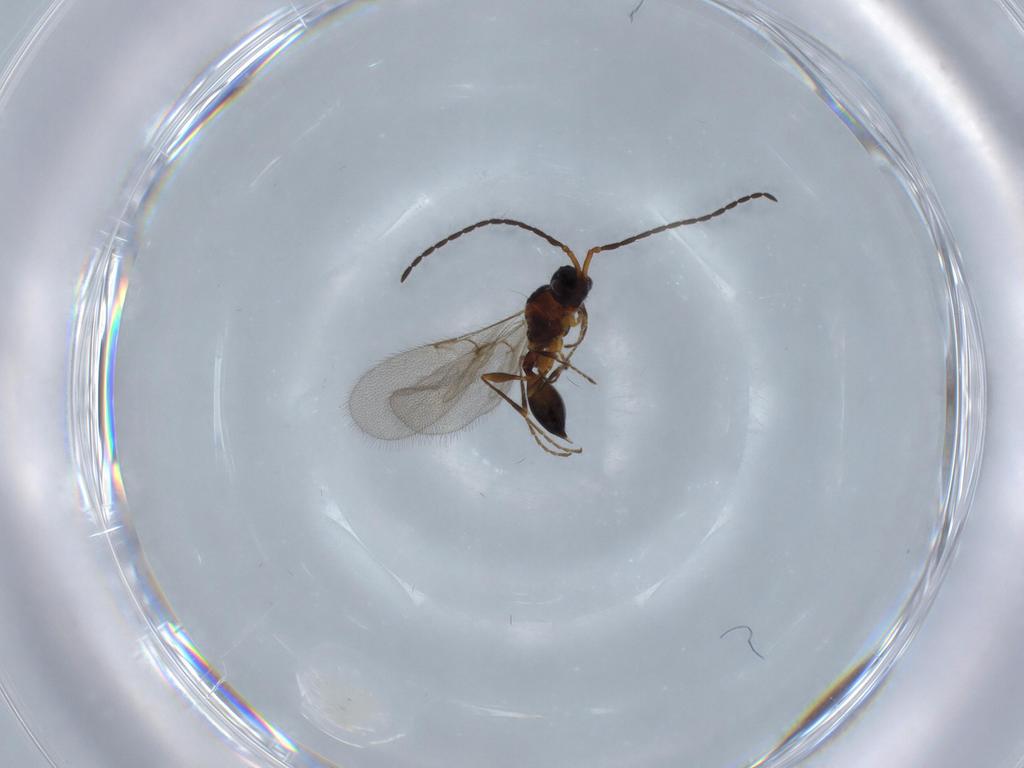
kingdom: Animalia
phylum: Arthropoda
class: Insecta
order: Hymenoptera
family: Diapriidae
